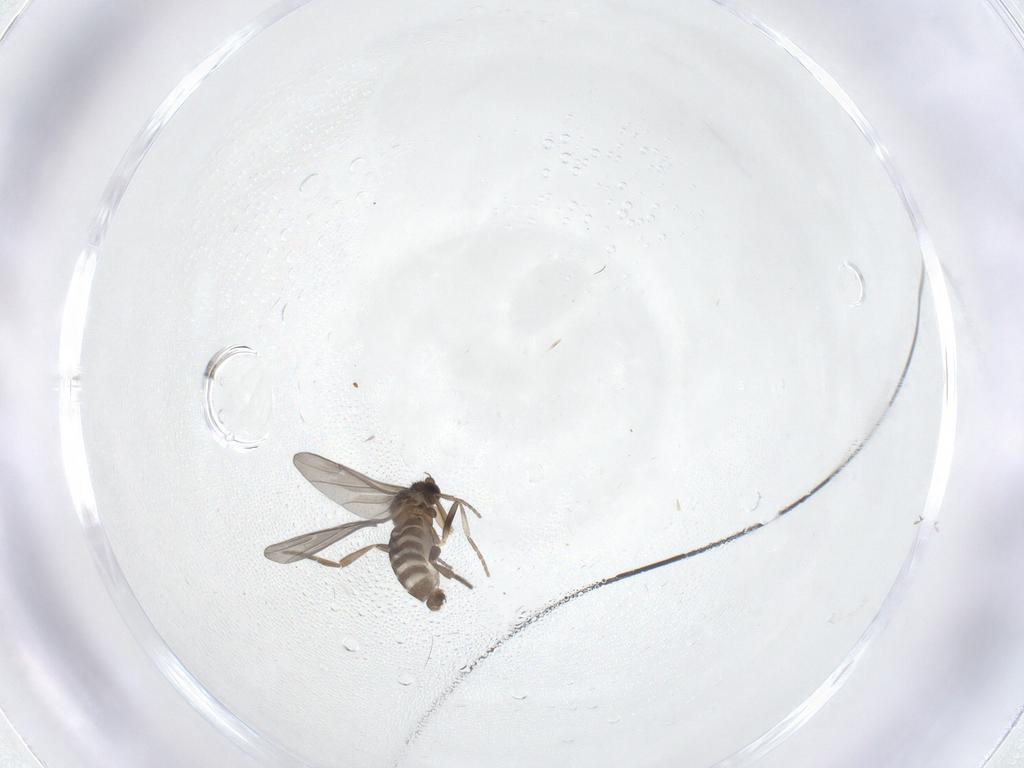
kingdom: Animalia
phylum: Arthropoda
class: Insecta
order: Diptera
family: Phoridae
